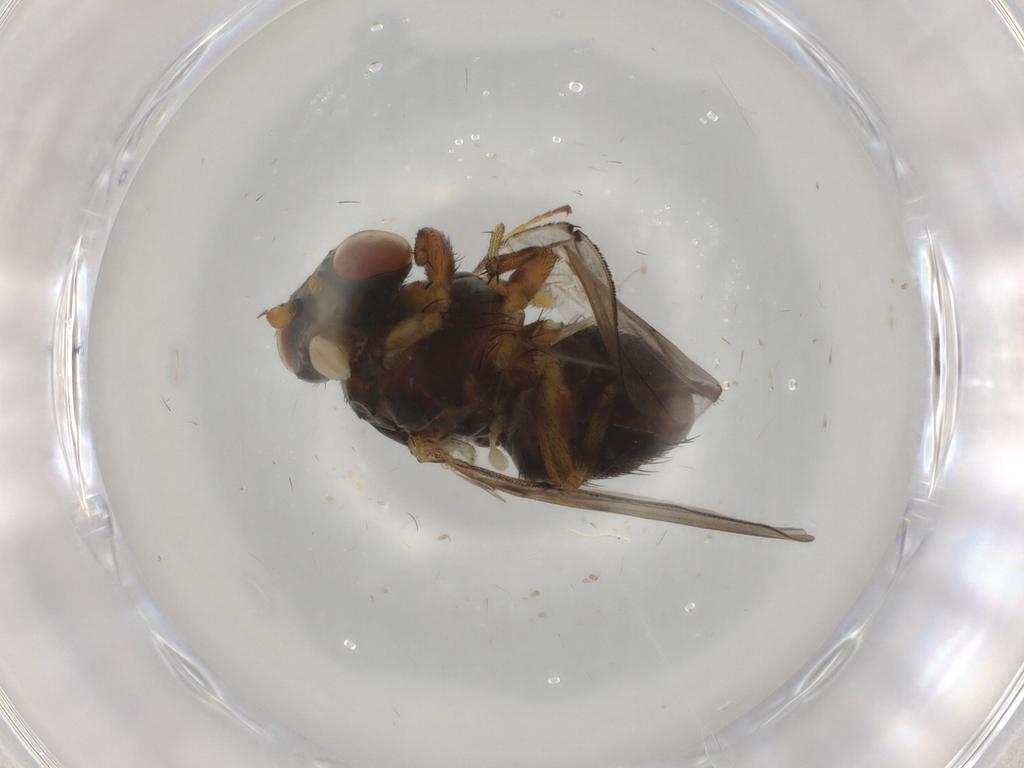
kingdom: Animalia
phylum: Arthropoda
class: Insecta
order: Diptera
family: Odiniidae
